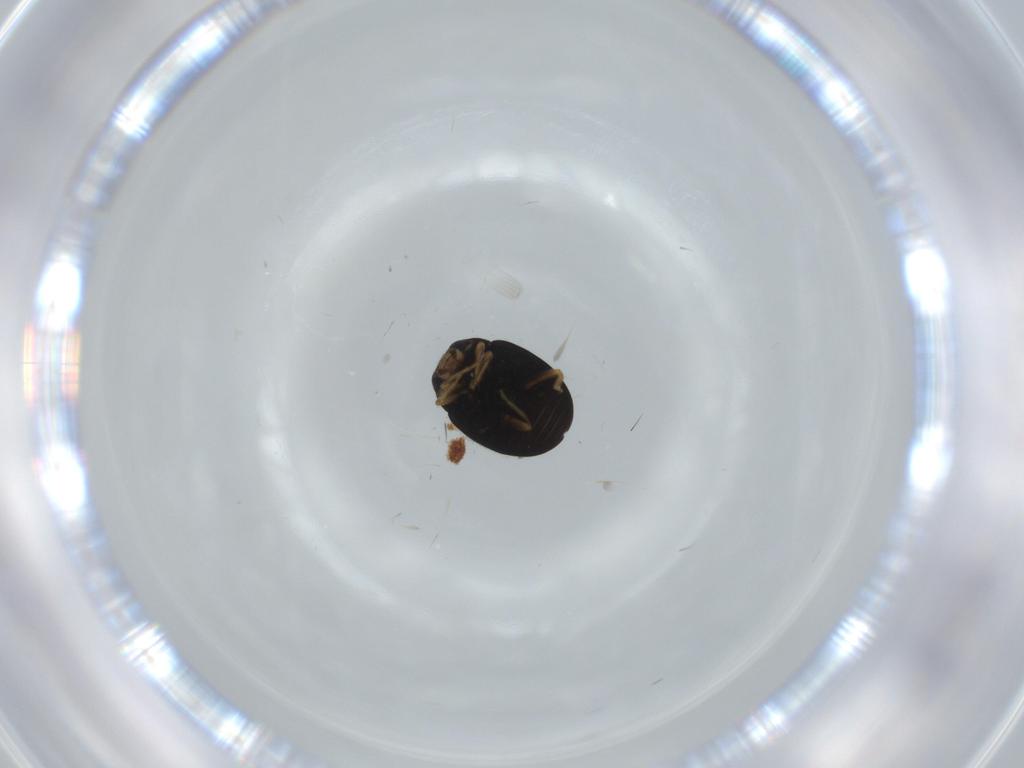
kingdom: Animalia
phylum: Arthropoda
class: Insecta
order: Coleoptera
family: Coccinellidae
